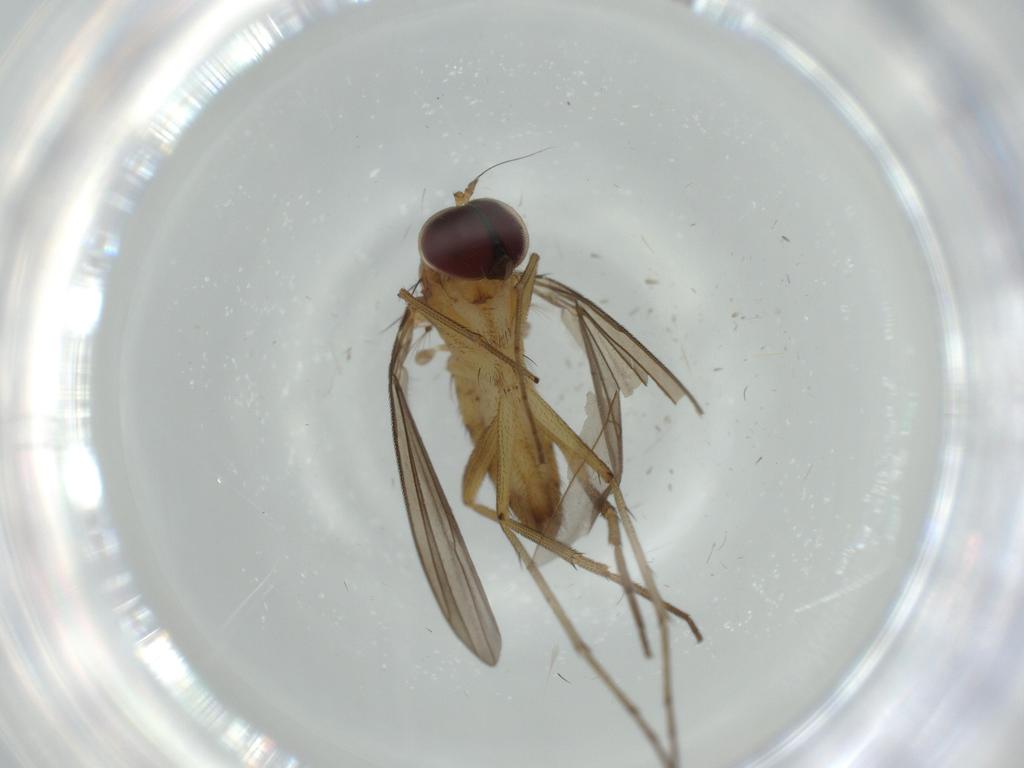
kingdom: Animalia
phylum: Arthropoda
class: Insecta
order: Diptera
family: Dolichopodidae
